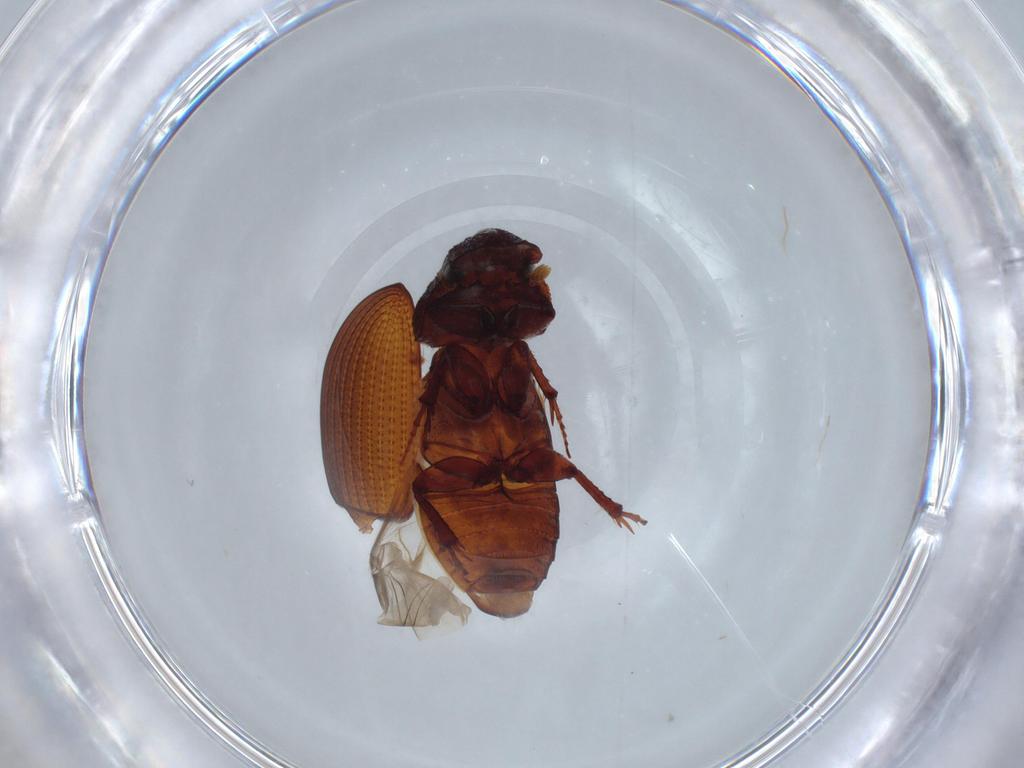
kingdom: Animalia
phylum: Arthropoda
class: Insecta
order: Coleoptera
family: Scarabaeidae
